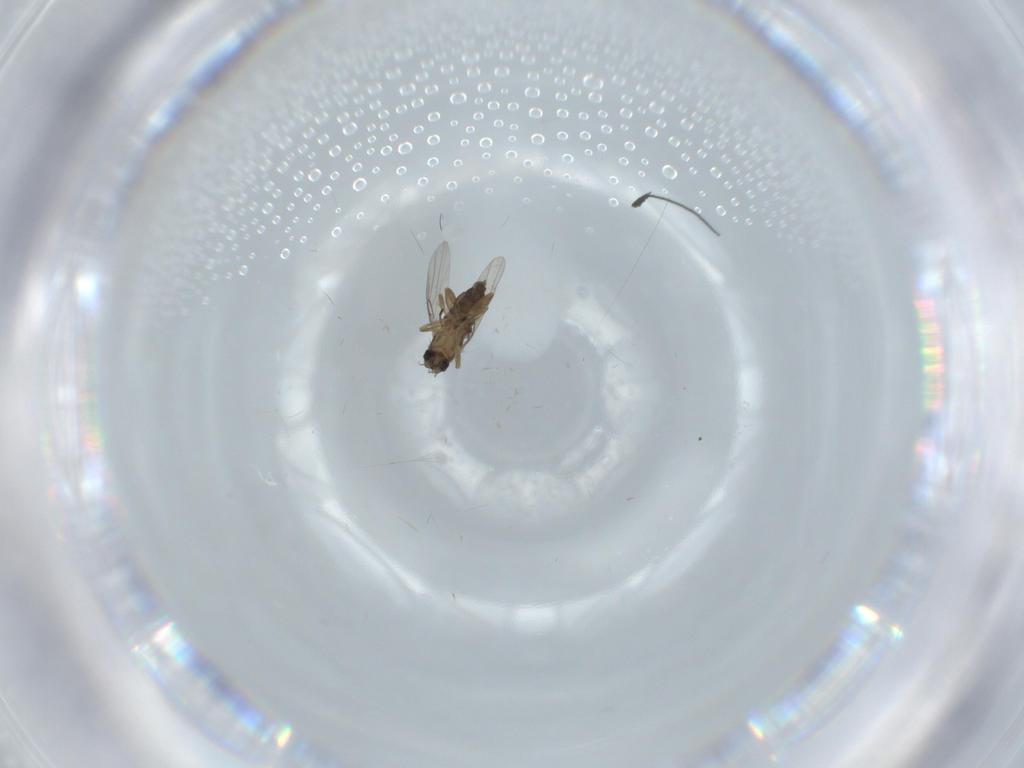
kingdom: Animalia
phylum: Arthropoda
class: Insecta
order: Diptera
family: Phoridae
